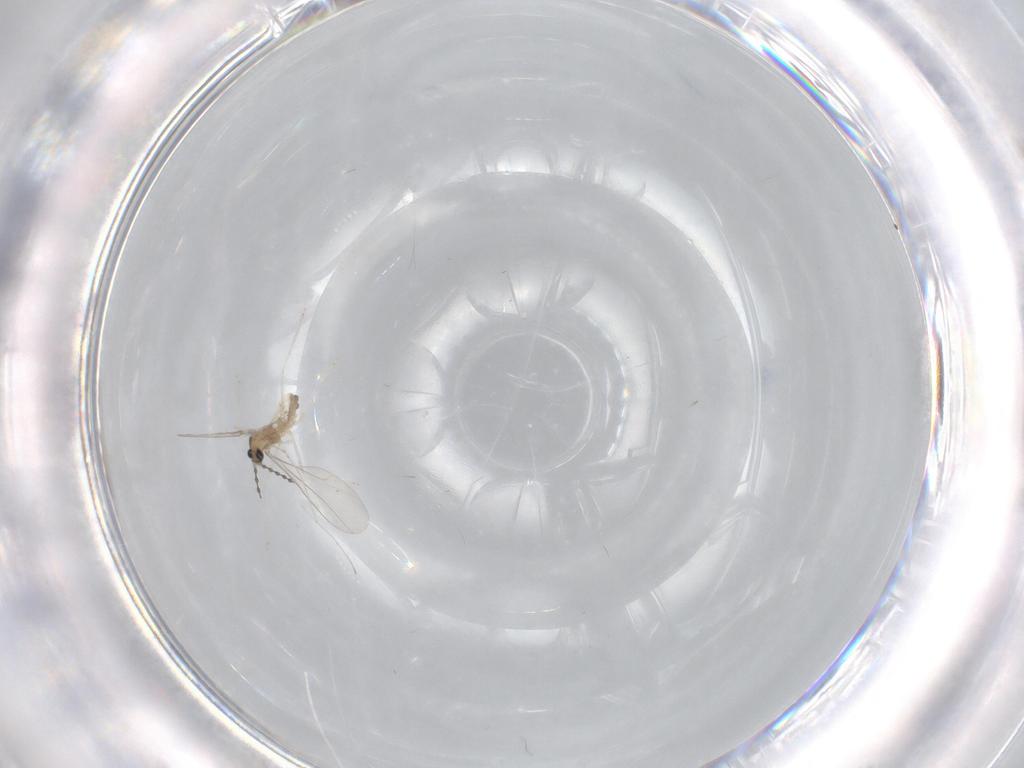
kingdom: Animalia
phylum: Arthropoda
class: Insecta
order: Diptera
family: Cecidomyiidae
